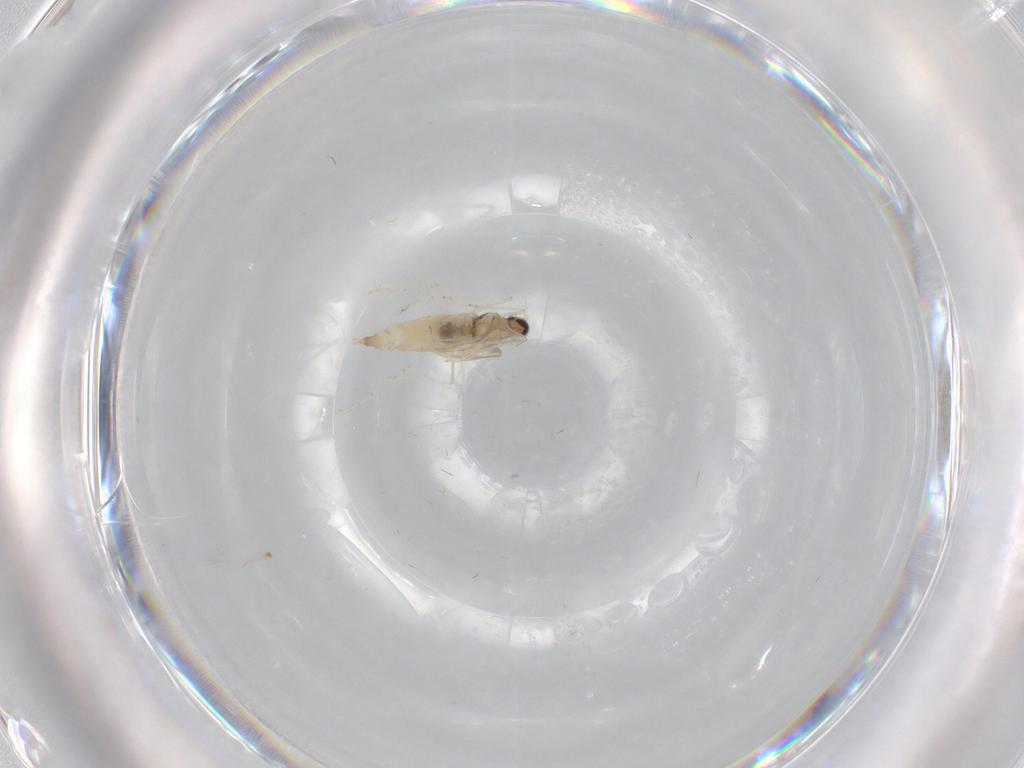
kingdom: Animalia
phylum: Arthropoda
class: Insecta
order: Diptera
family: Cecidomyiidae
